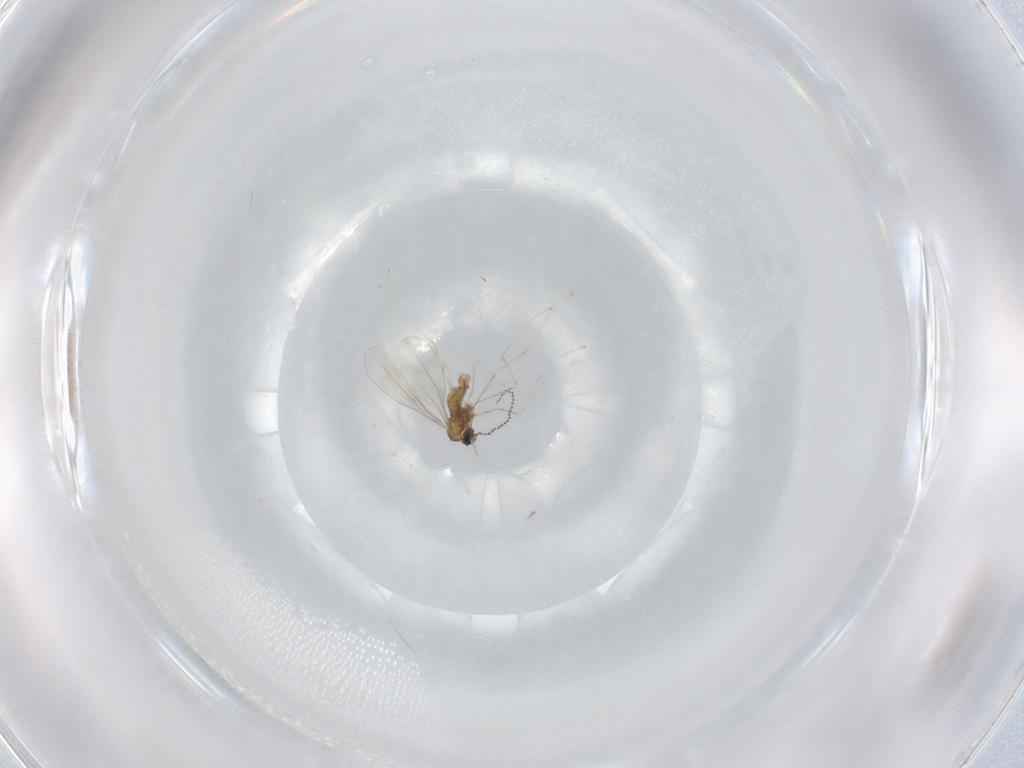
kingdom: Animalia
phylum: Arthropoda
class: Insecta
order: Diptera
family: Cecidomyiidae
